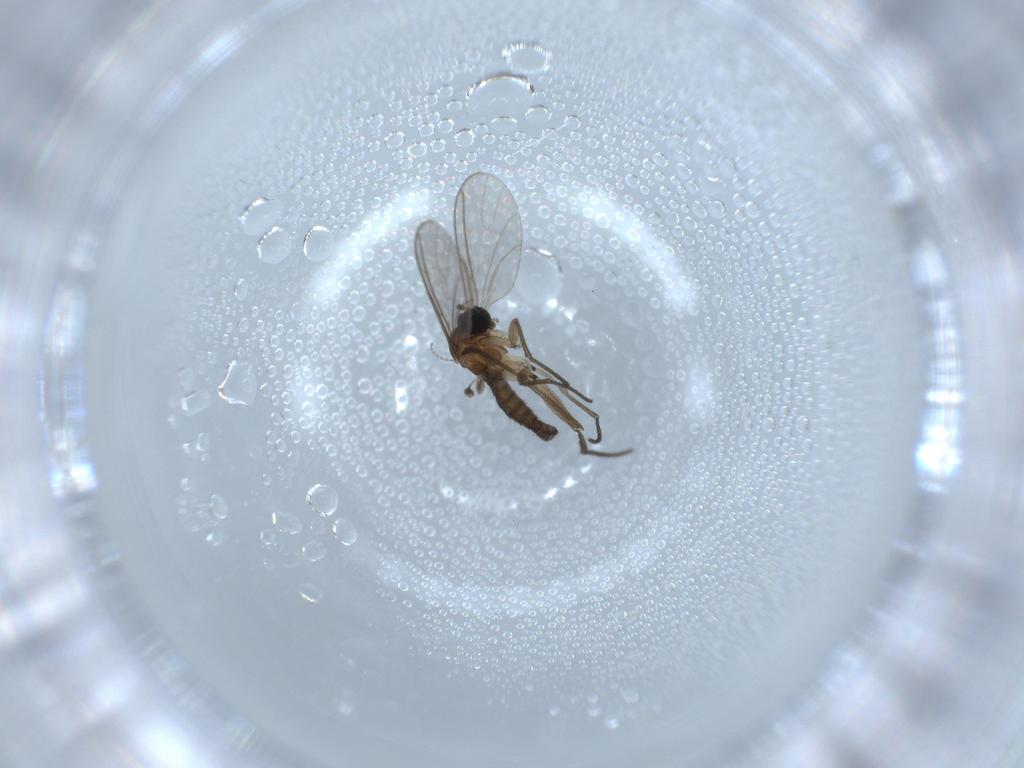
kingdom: Animalia
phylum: Arthropoda
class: Insecta
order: Diptera
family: Sciaridae
